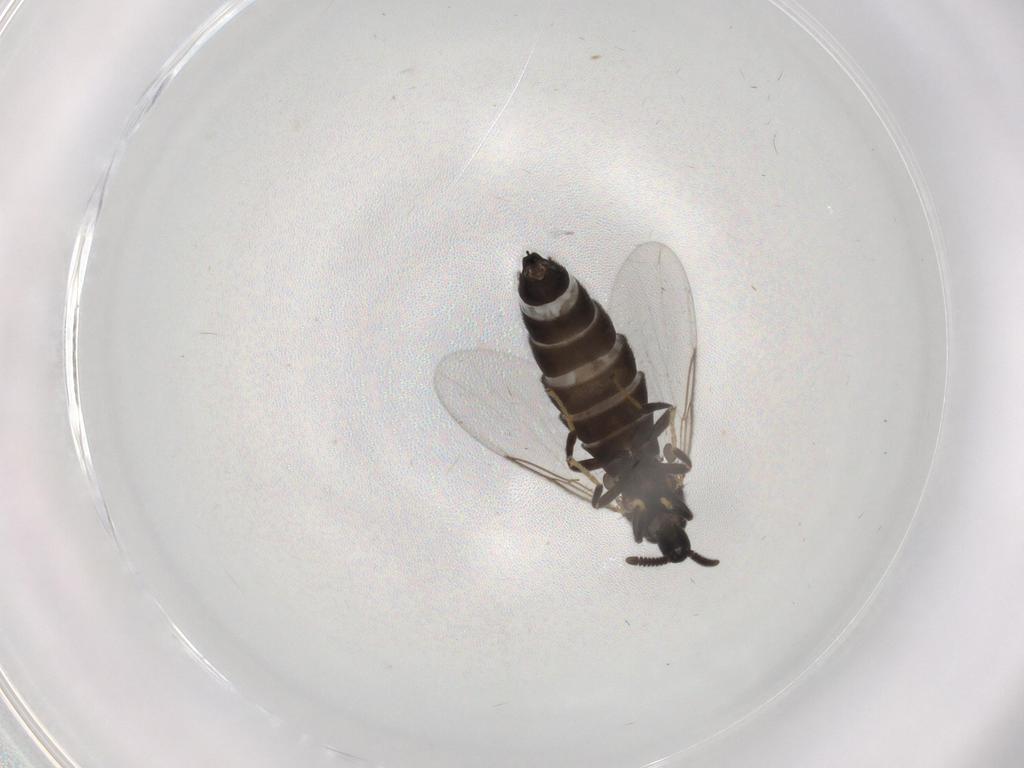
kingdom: Animalia
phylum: Arthropoda
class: Insecta
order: Diptera
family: Scatopsidae
